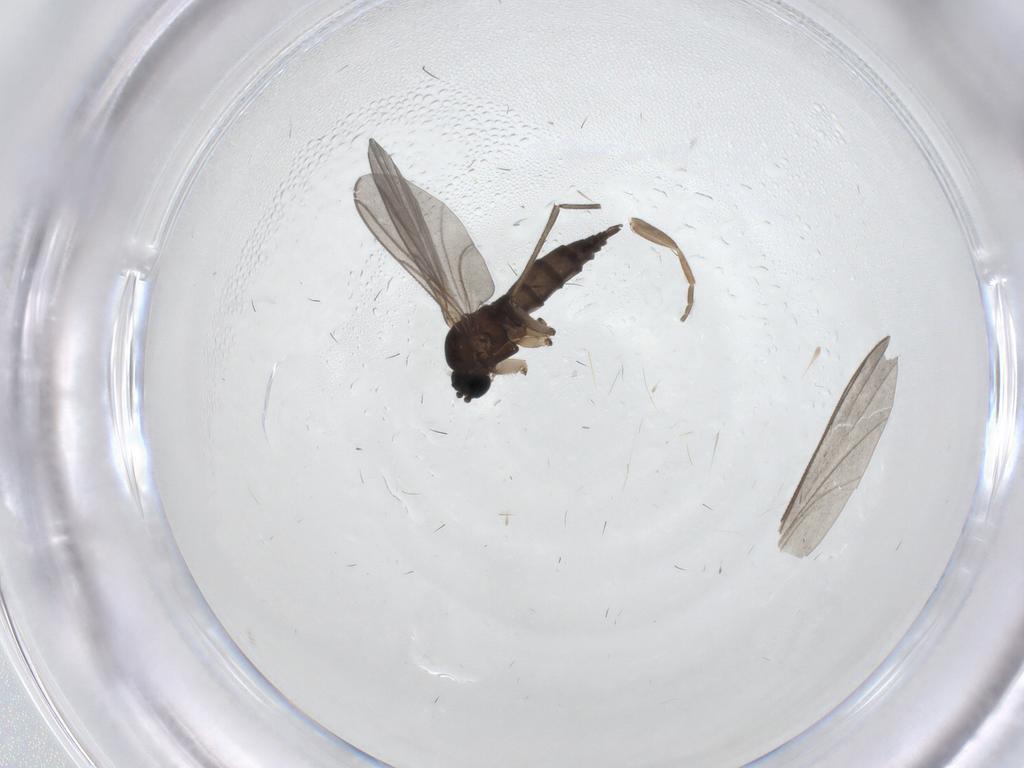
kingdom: Animalia
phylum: Arthropoda
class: Insecta
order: Diptera
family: Sciaridae
